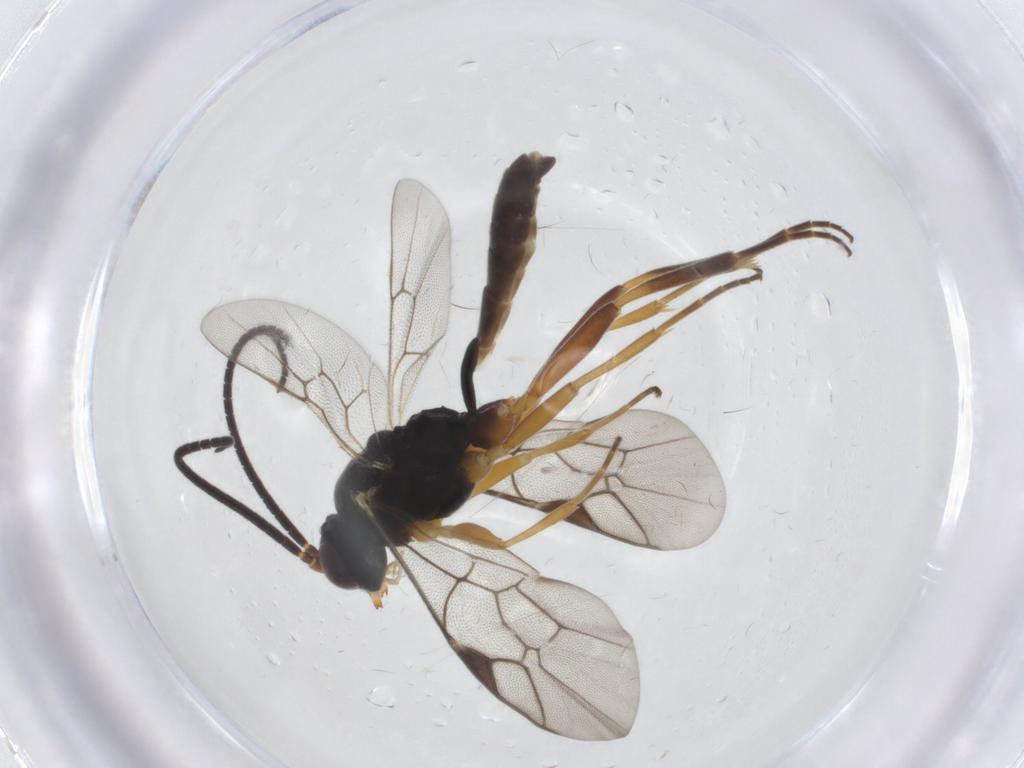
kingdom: Animalia
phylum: Arthropoda
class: Insecta
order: Hymenoptera
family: Ichneumonidae
